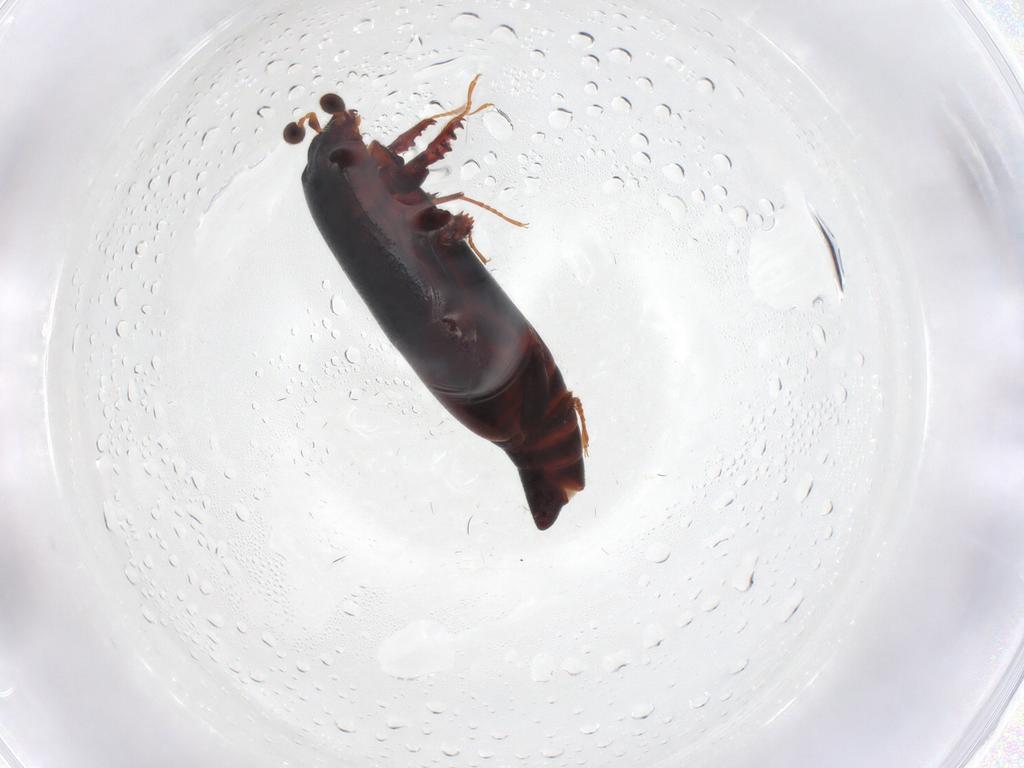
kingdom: Animalia
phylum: Arthropoda
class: Insecta
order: Coleoptera
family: Histeridae
